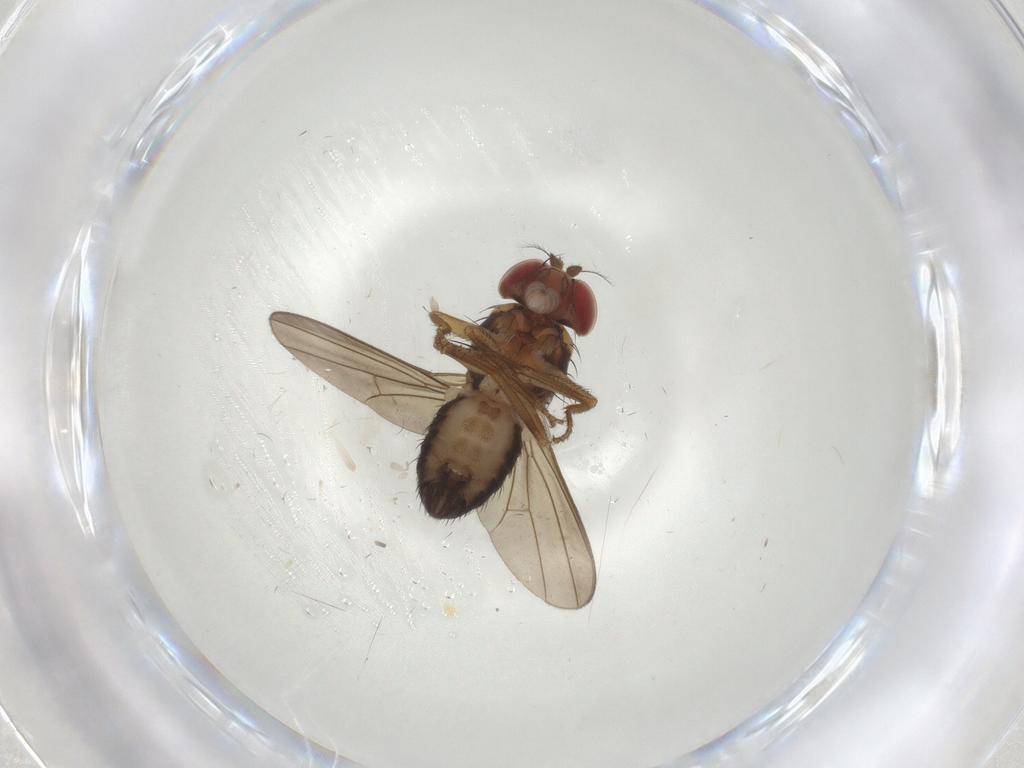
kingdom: Animalia
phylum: Arthropoda
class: Insecta
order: Diptera
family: Drosophilidae
